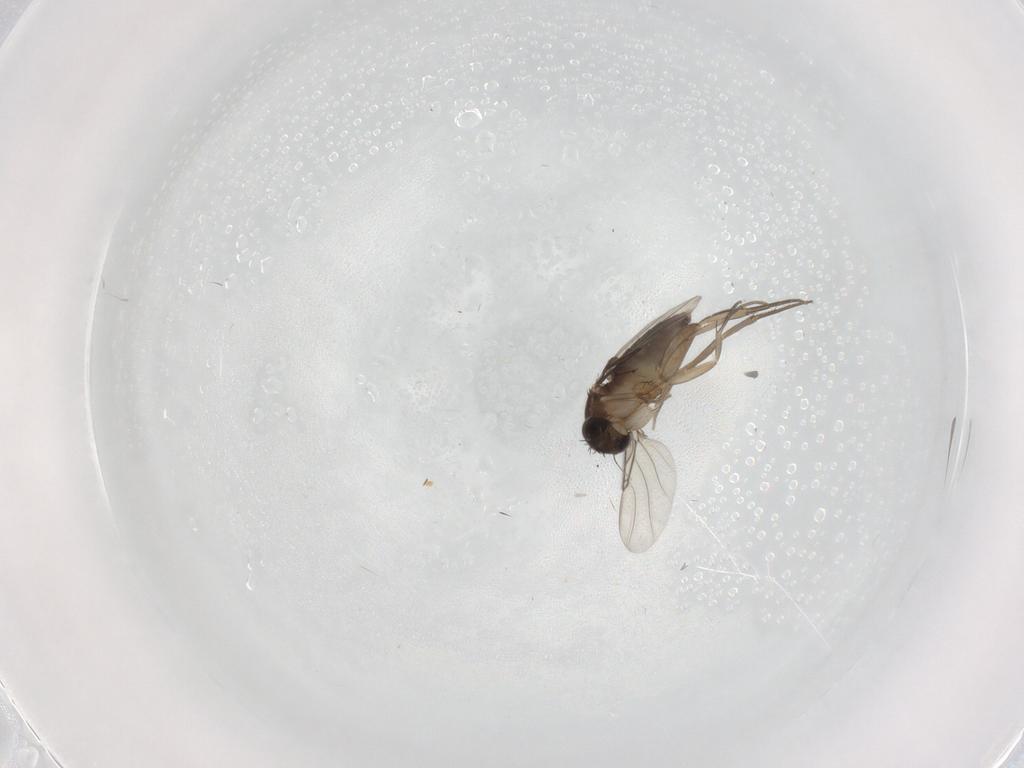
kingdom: Animalia
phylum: Arthropoda
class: Insecta
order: Diptera
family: Phoridae
